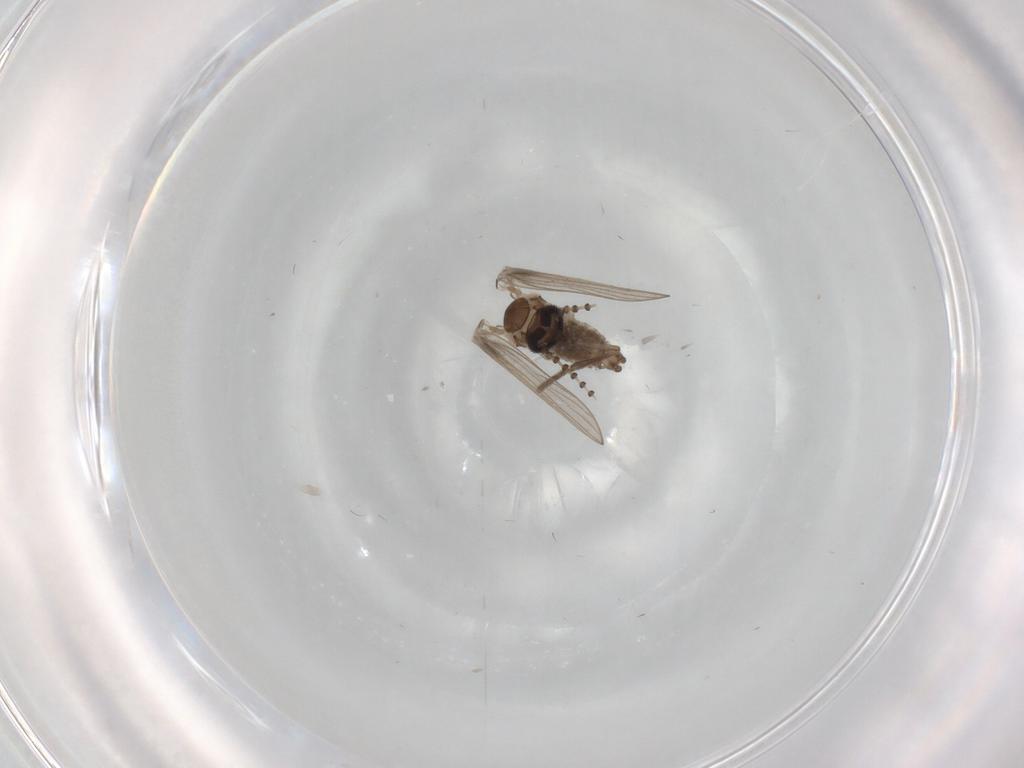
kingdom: Animalia
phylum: Arthropoda
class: Insecta
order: Diptera
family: Psychodidae
